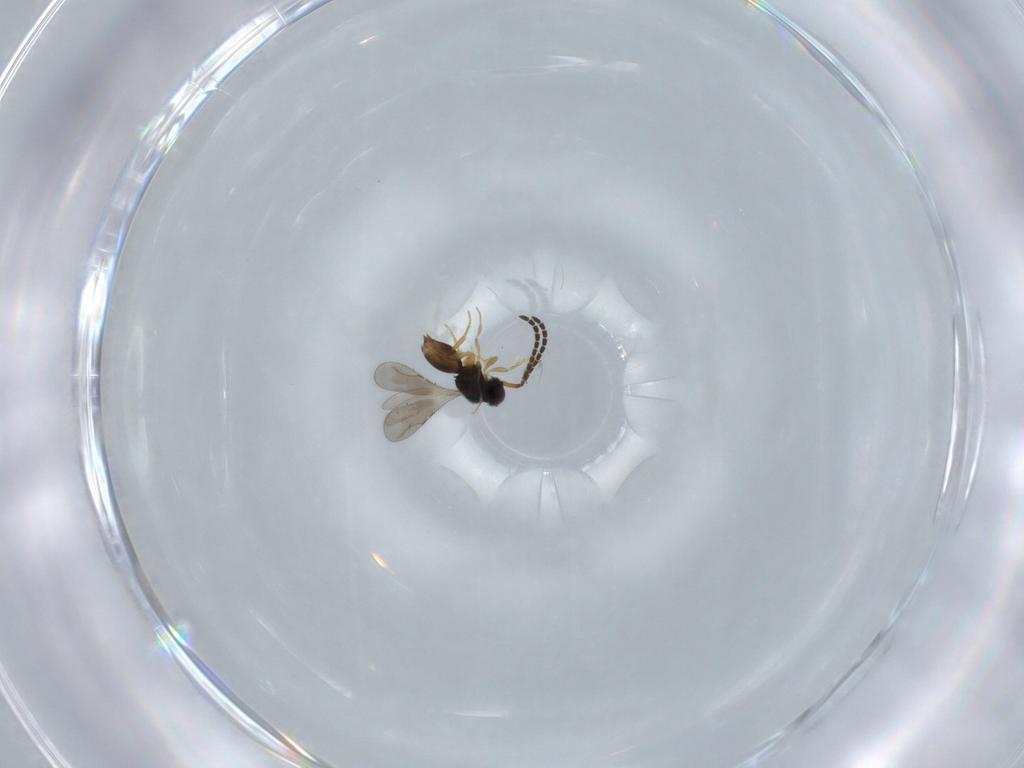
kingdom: Animalia
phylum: Arthropoda
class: Insecta
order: Hymenoptera
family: Ceraphronidae
